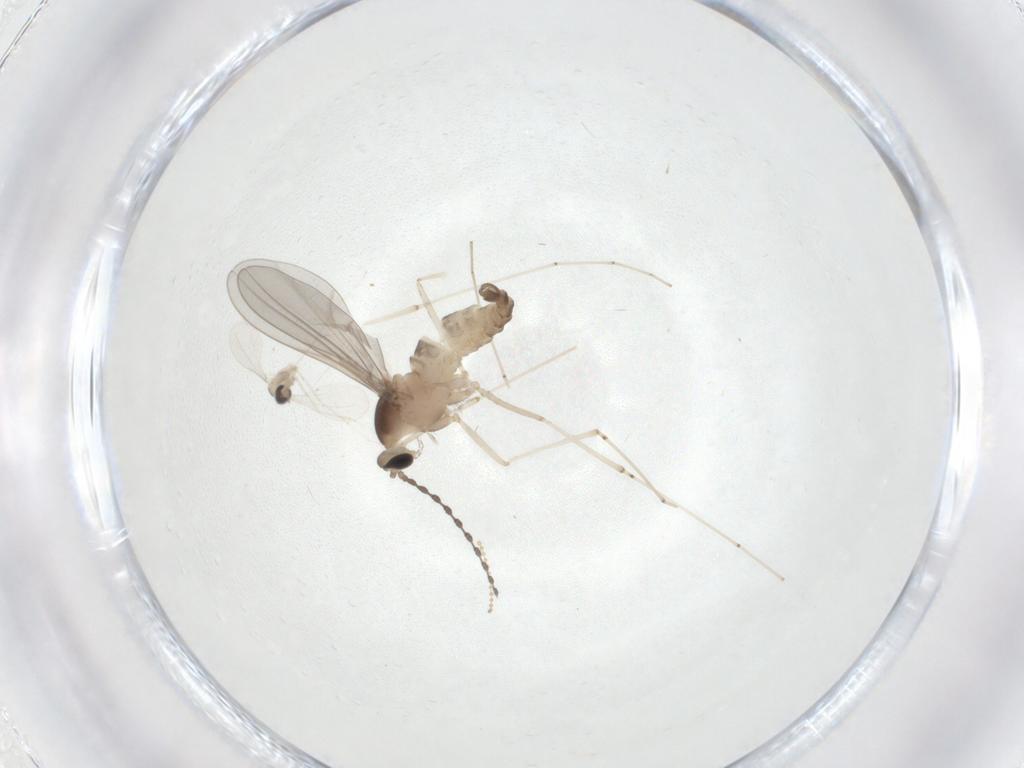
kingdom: Animalia
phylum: Arthropoda
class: Insecta
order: Diptera
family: Cecidomyiidae
